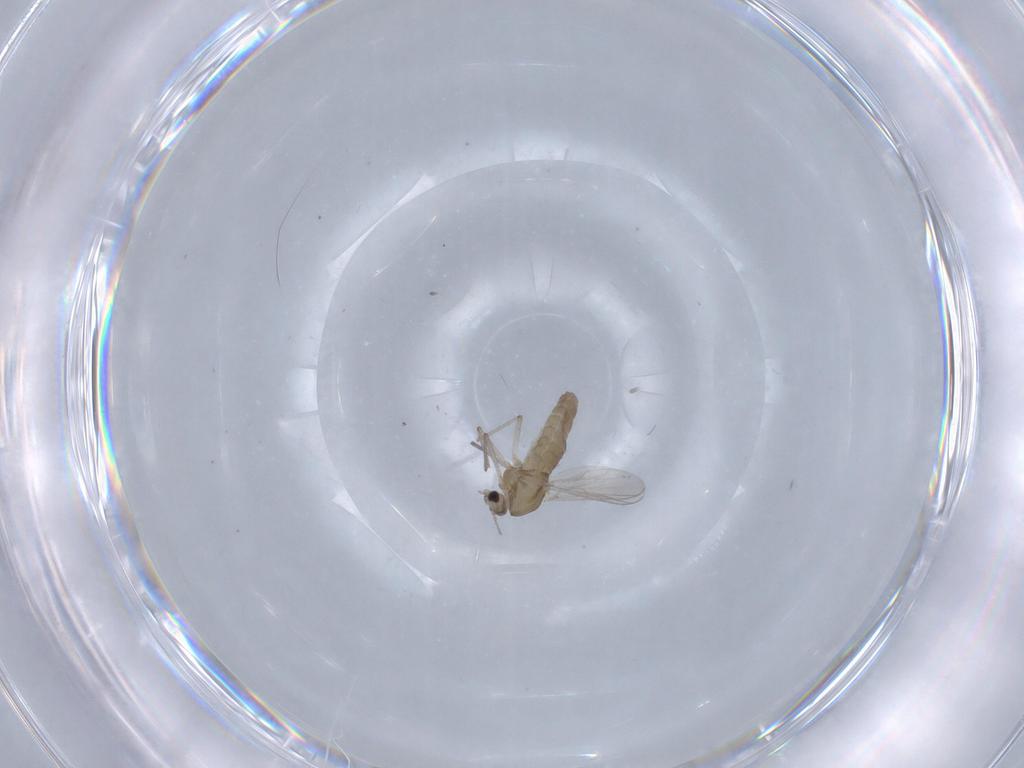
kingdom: Animalia
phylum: Arthropoda
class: Insecta
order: Diptera
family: Chironomidae
